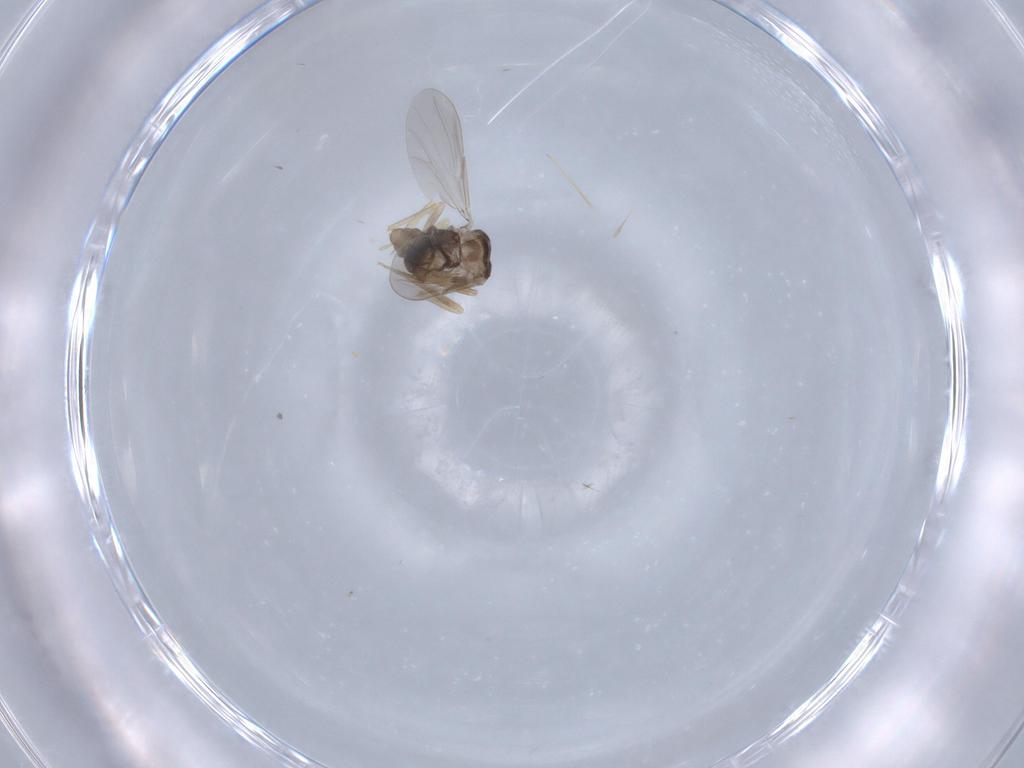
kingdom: Animalia
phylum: Arthropoda
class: Insecta
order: Diptera
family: Ceratopogonidae
